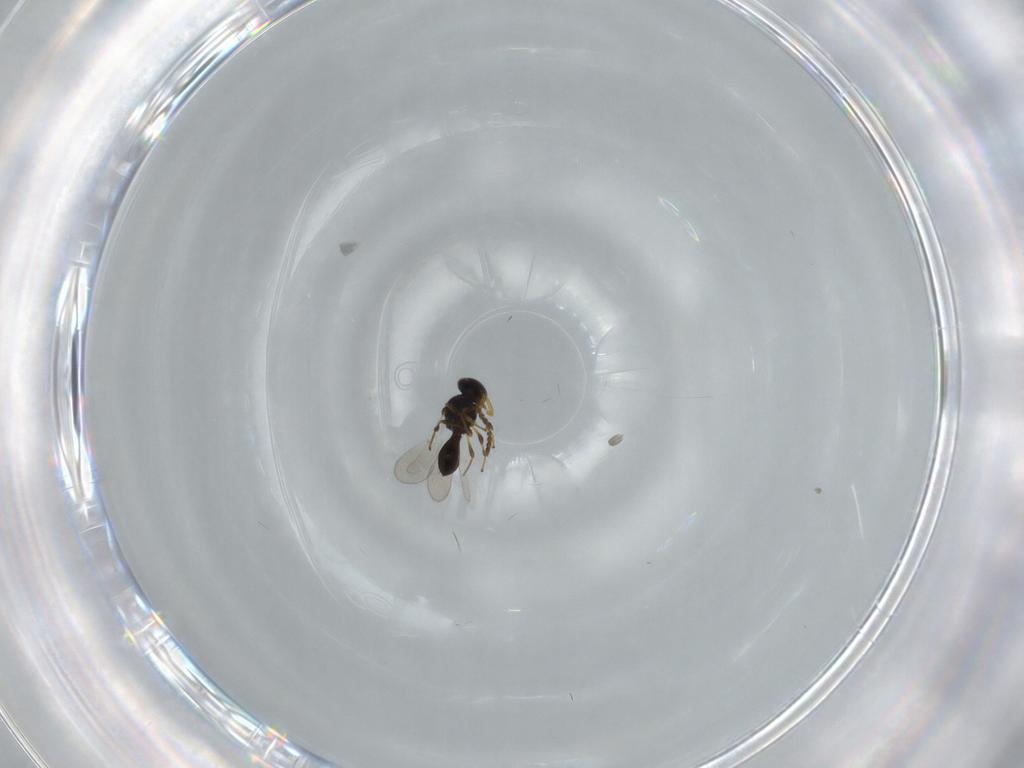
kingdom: Animalia
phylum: Arthropoda
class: Insecta
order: Hymenoptera
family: Platygastridae
